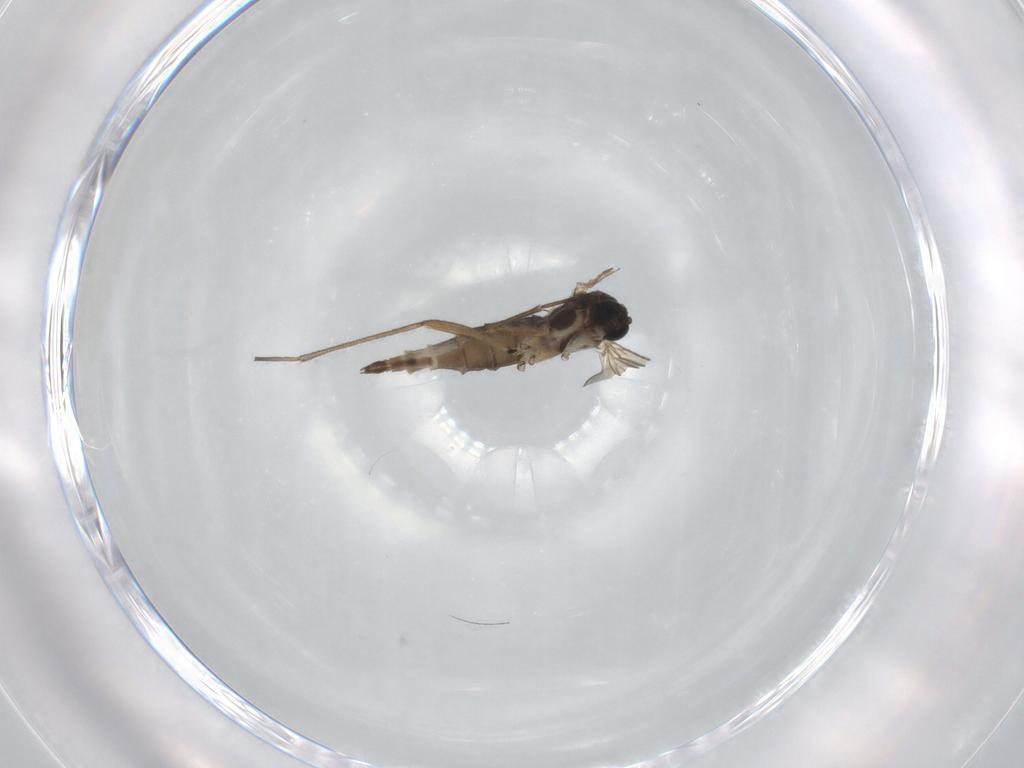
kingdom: Animalia
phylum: Arthropoda
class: Insecta
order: Diptera
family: Sciaridae
